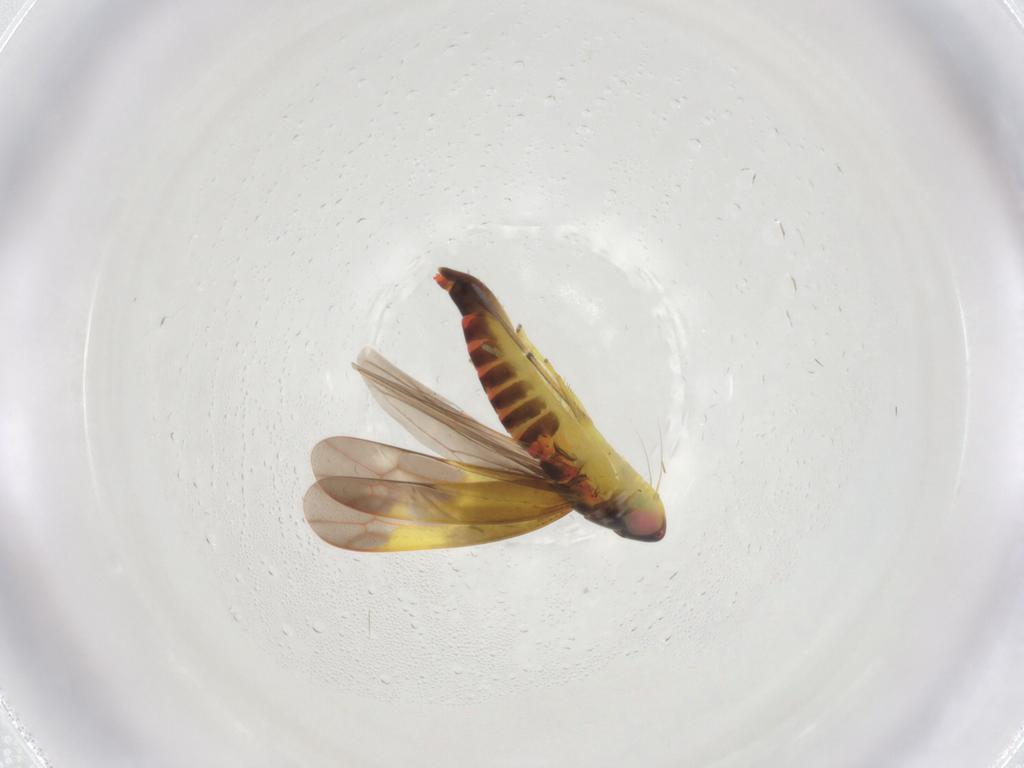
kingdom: Animalia
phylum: Arthropoda
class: Insecta
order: Hemiptera
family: Cicadellidae
